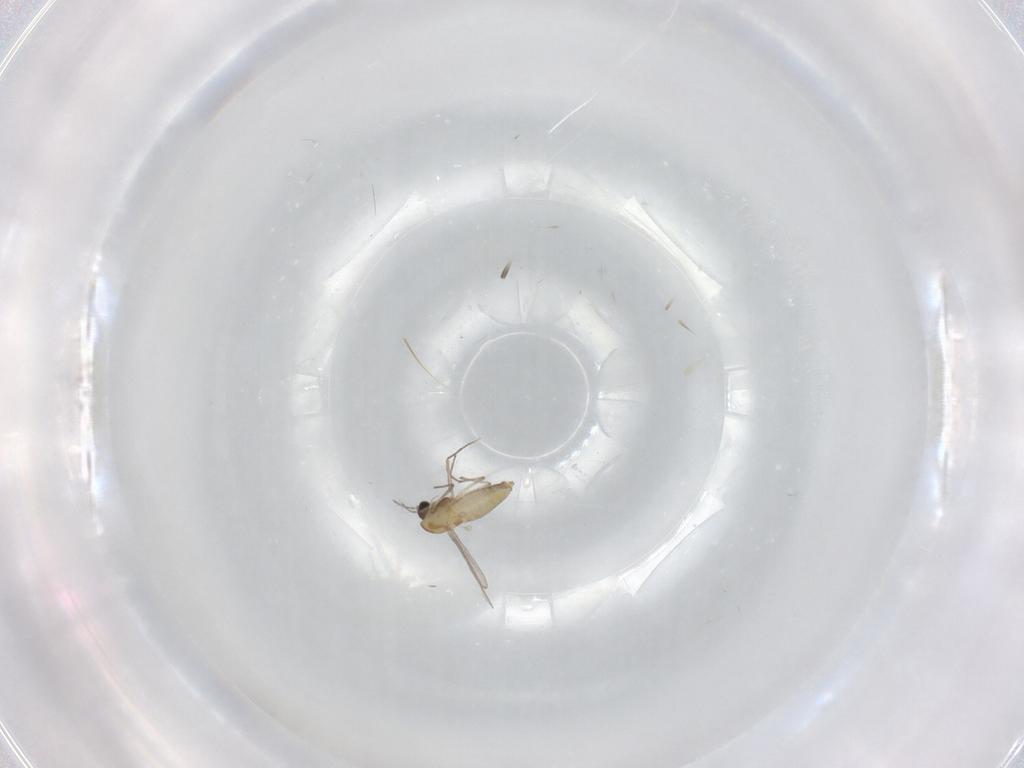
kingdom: Animalia
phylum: Arthropoda
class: Insecta
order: Diptera
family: Chironomidae
